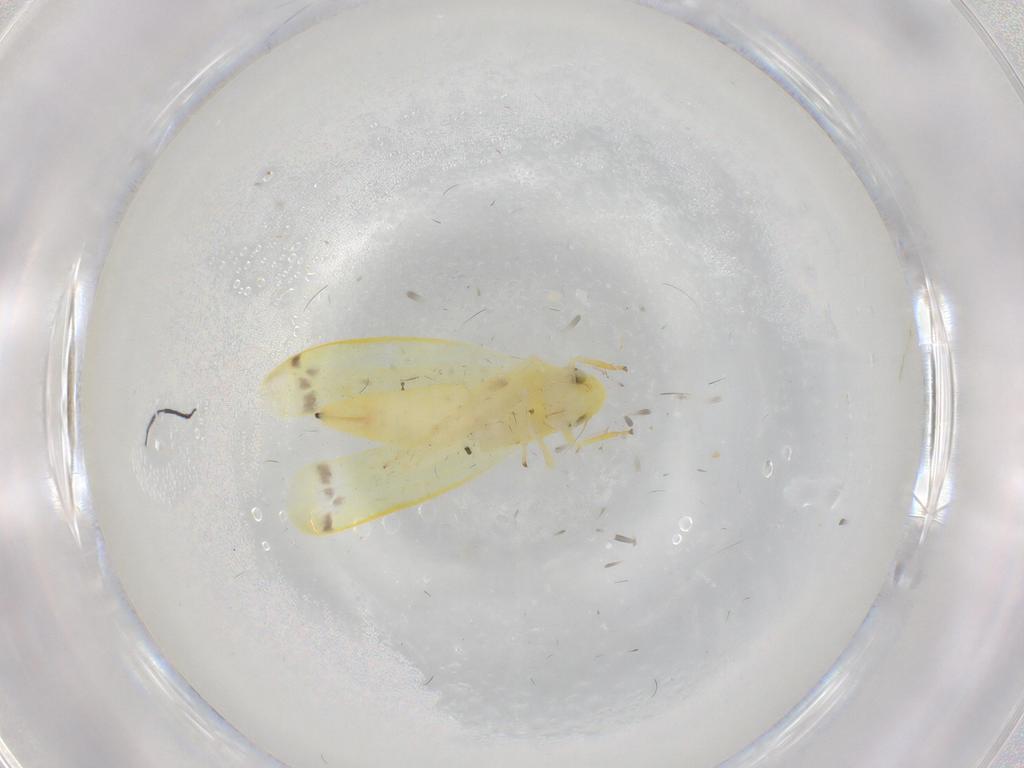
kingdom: Animalia
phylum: Arthropoda
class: Insecta
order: Hemiptera
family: Cicadellidae
